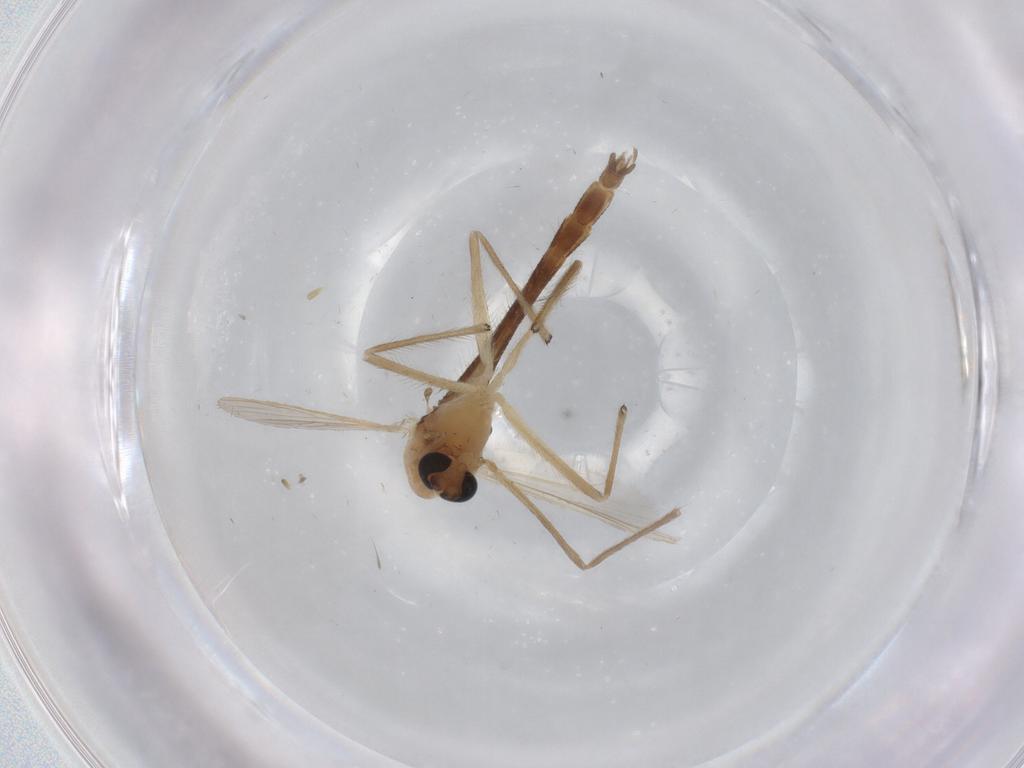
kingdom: Animalia
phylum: Arthropoda
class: Insecta
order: Diptera
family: Chironomidae
